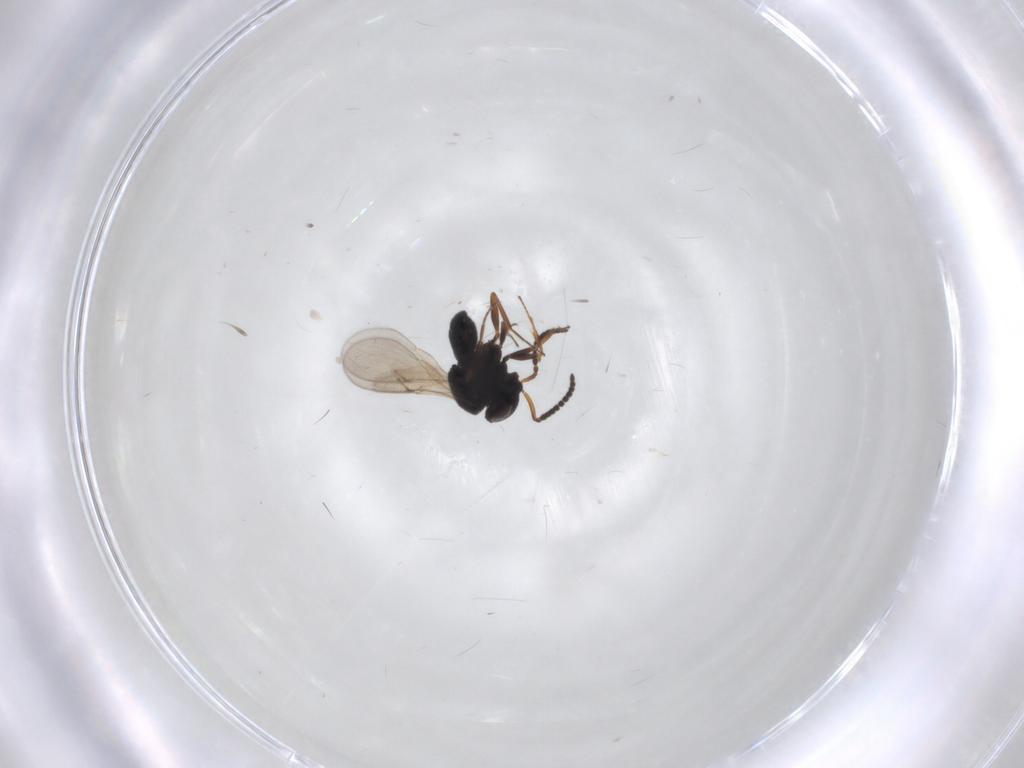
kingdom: Animalia
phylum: Arthropoda
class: Insecta
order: Hymenoptera
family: Scelionidae
